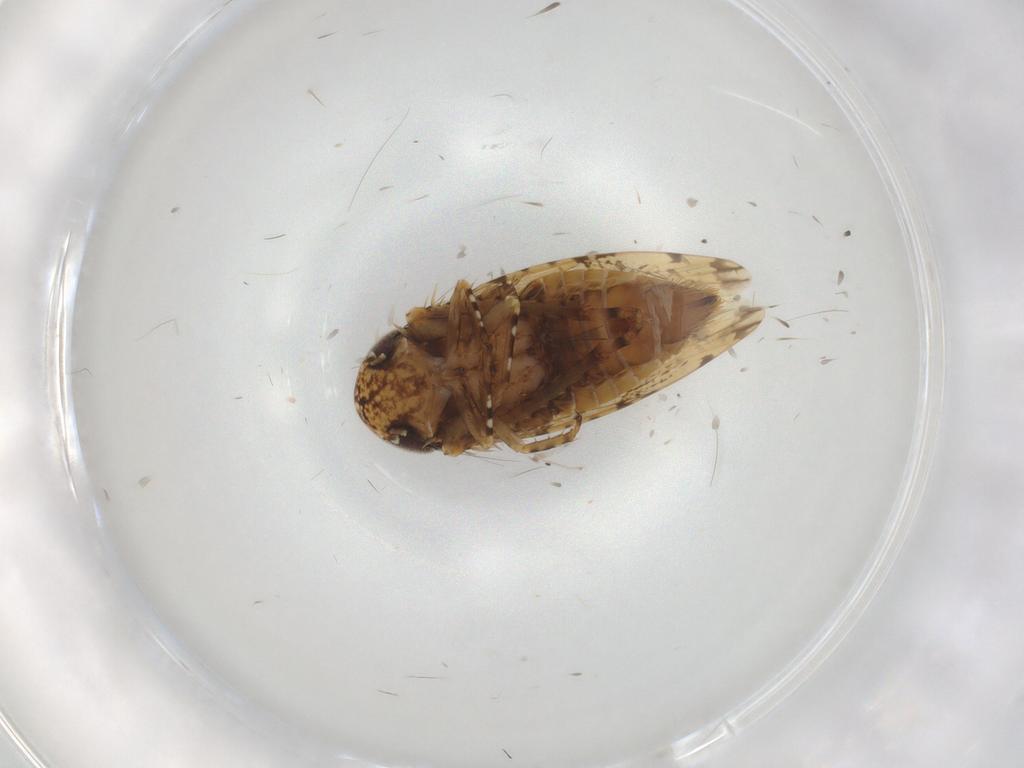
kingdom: Animalia
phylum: Arthropoda
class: Insecta
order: Hemiptera
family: Cicadellidae
